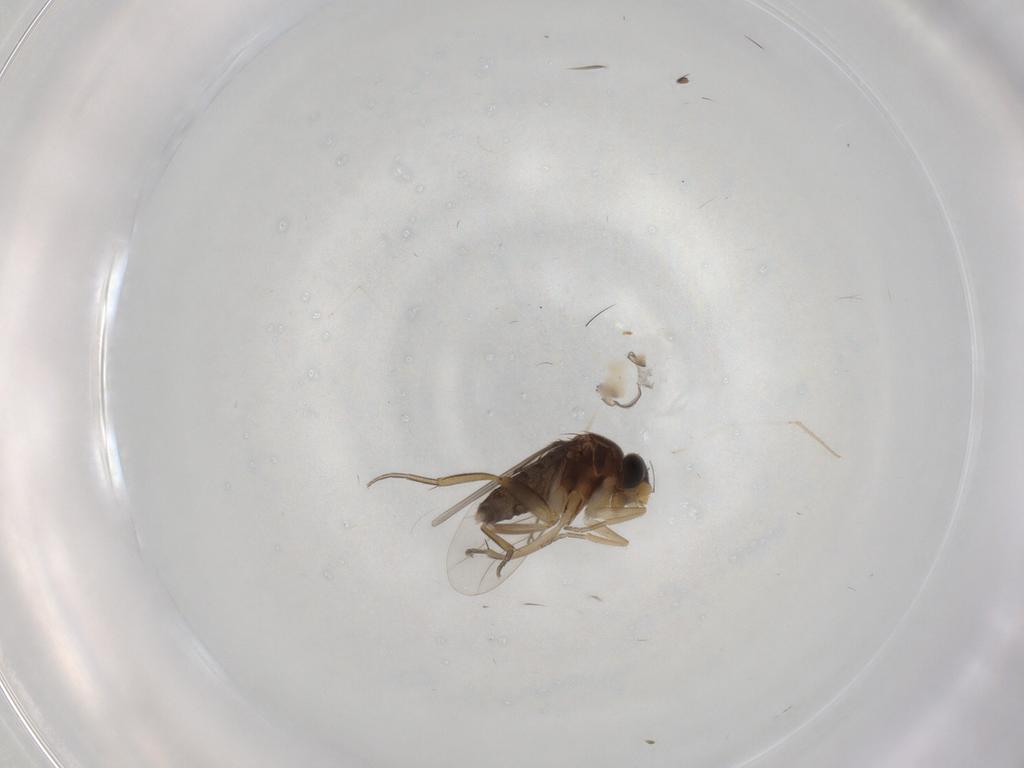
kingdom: Animalia
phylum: Arthropoda
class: Insecta
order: Diptera
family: Phoridae
